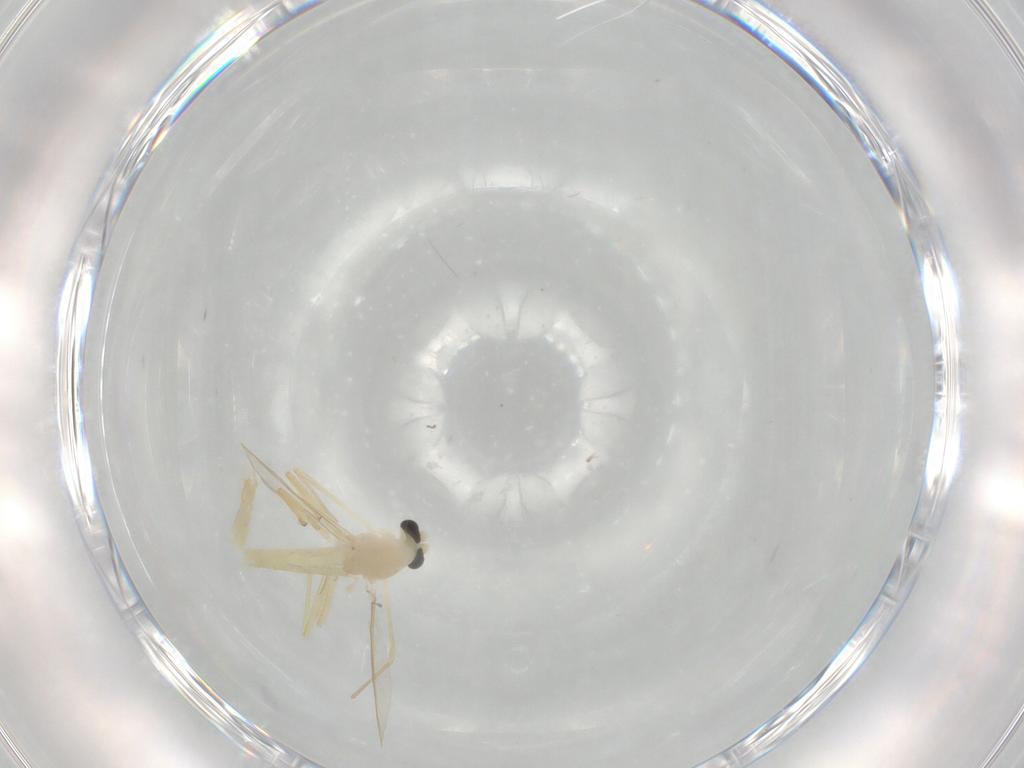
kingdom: Animalia
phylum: Arthropoda
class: Insecta
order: Diptera
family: Chironomidae
